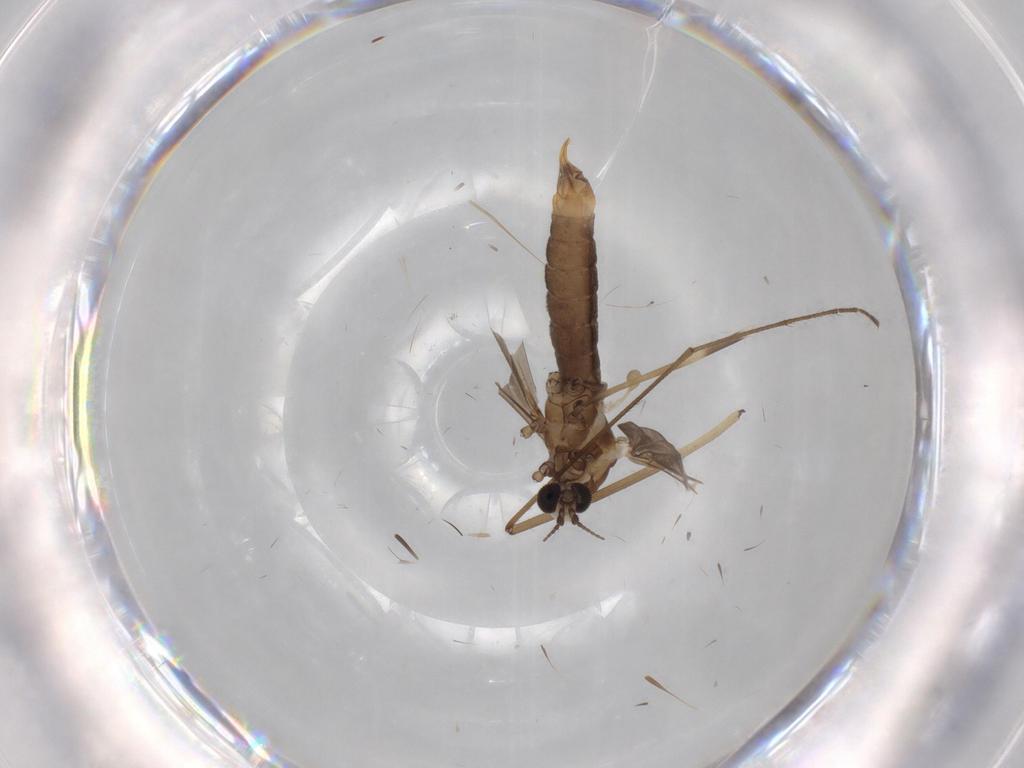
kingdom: Animalia
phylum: Arthropoda
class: Insecta
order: Diptera
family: Limoniidae
